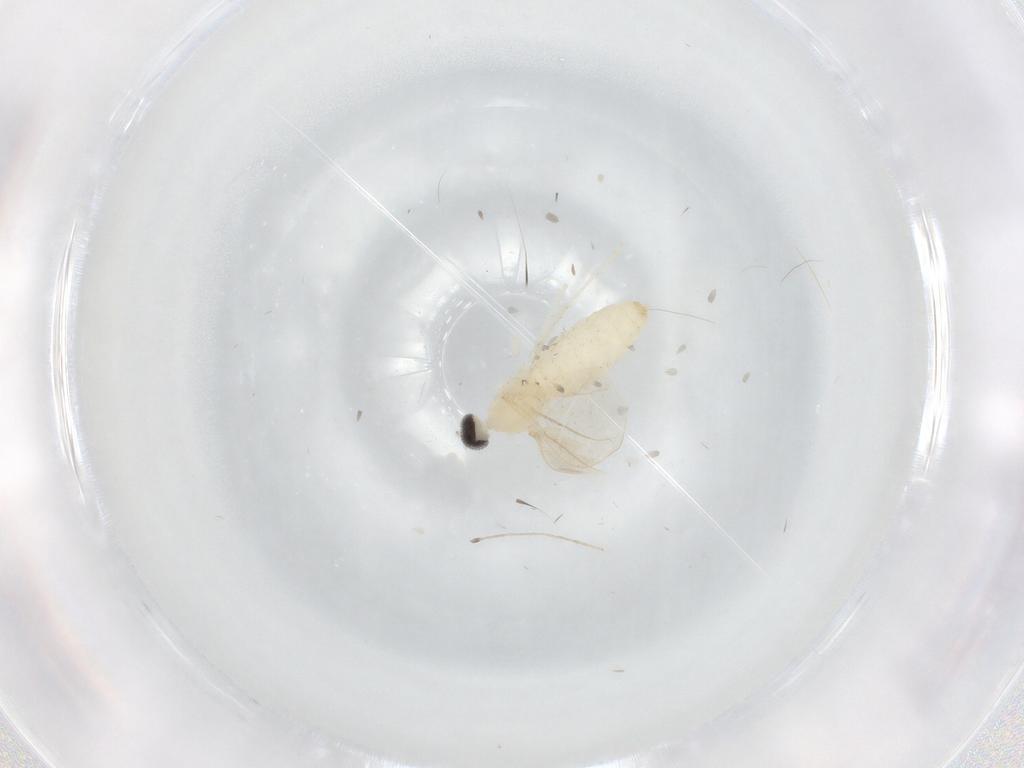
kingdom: Animalia
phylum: Arthropoda
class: Insecta
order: Diptera
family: Cecidomyiidae
